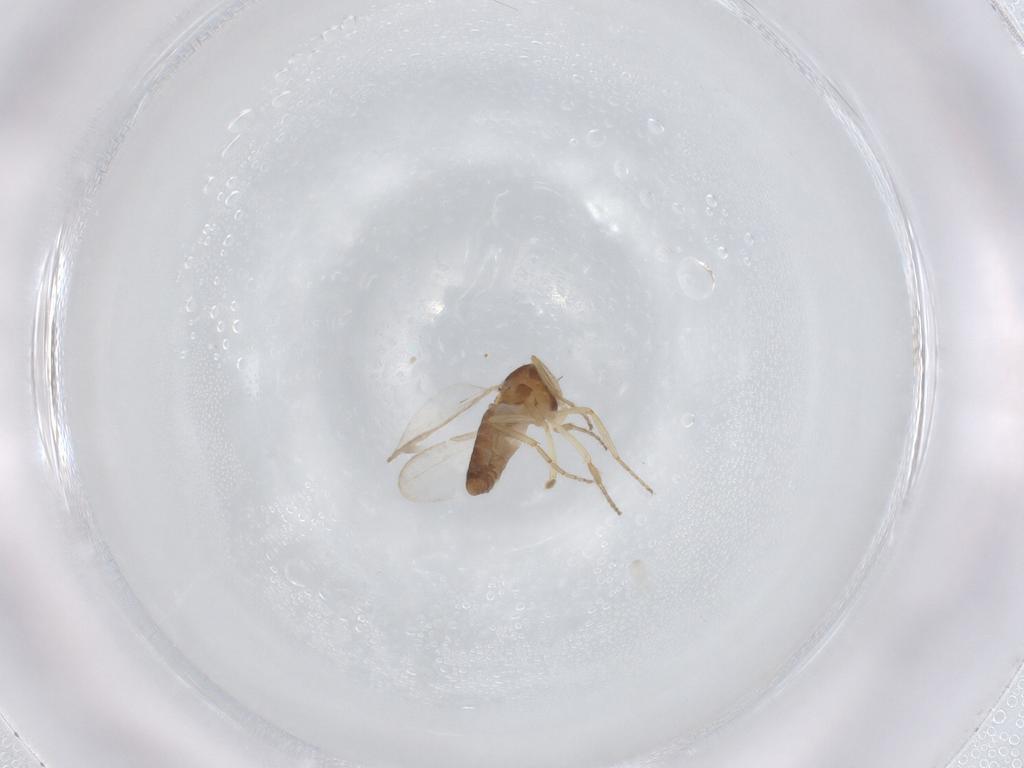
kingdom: Animalia
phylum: Arthropoda
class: Insecta
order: Diptera
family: Ceratopogonidae
